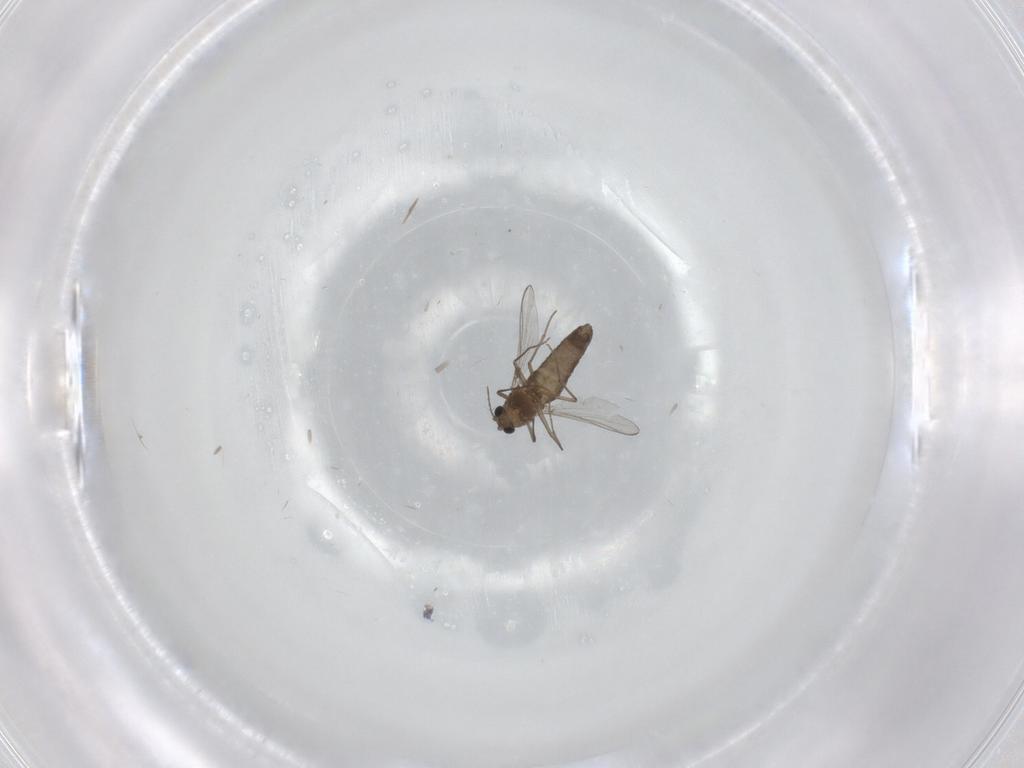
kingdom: Animalia
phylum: Arthropoda
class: Insecta
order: Diptera
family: Chironomidae
